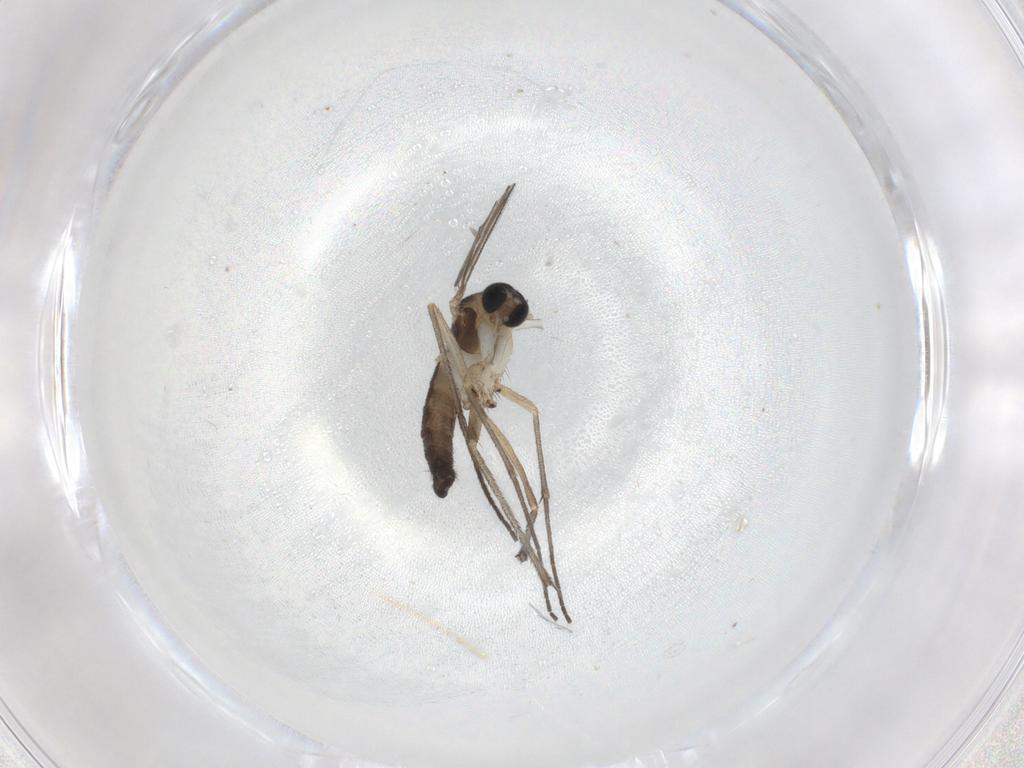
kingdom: Animalia
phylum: Arthropoda
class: Insecta
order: Diptera
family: Sciaridae
